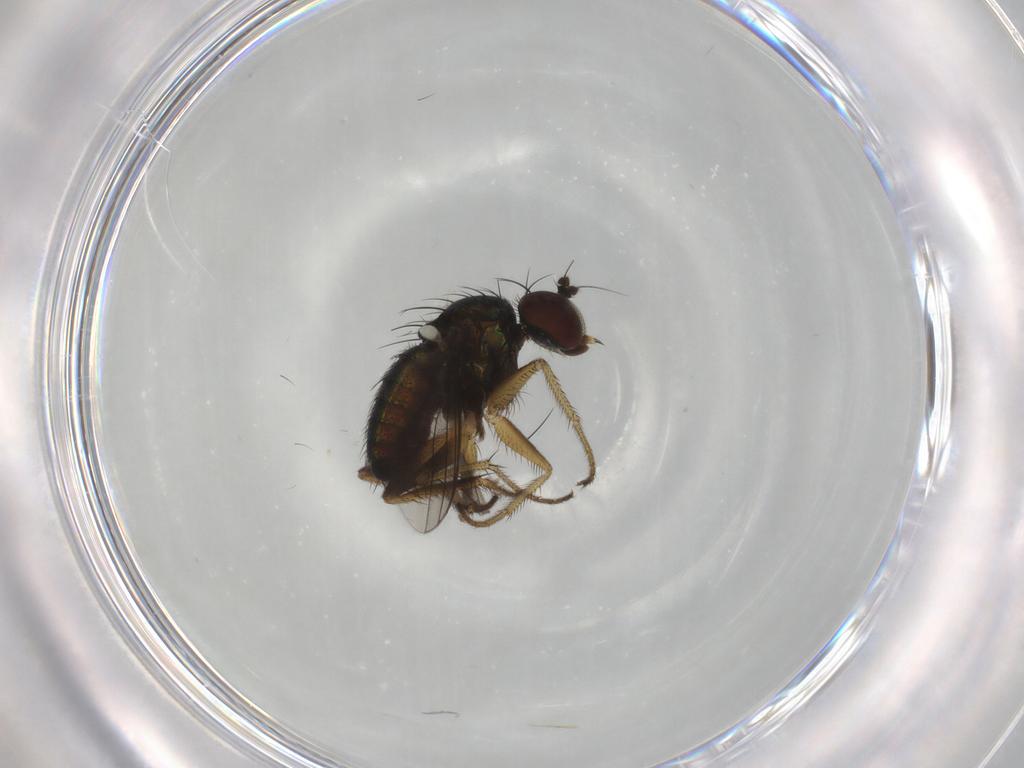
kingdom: Animalia
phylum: Arthropoda
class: Insecta
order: Diptera
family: Dolichopodidae
